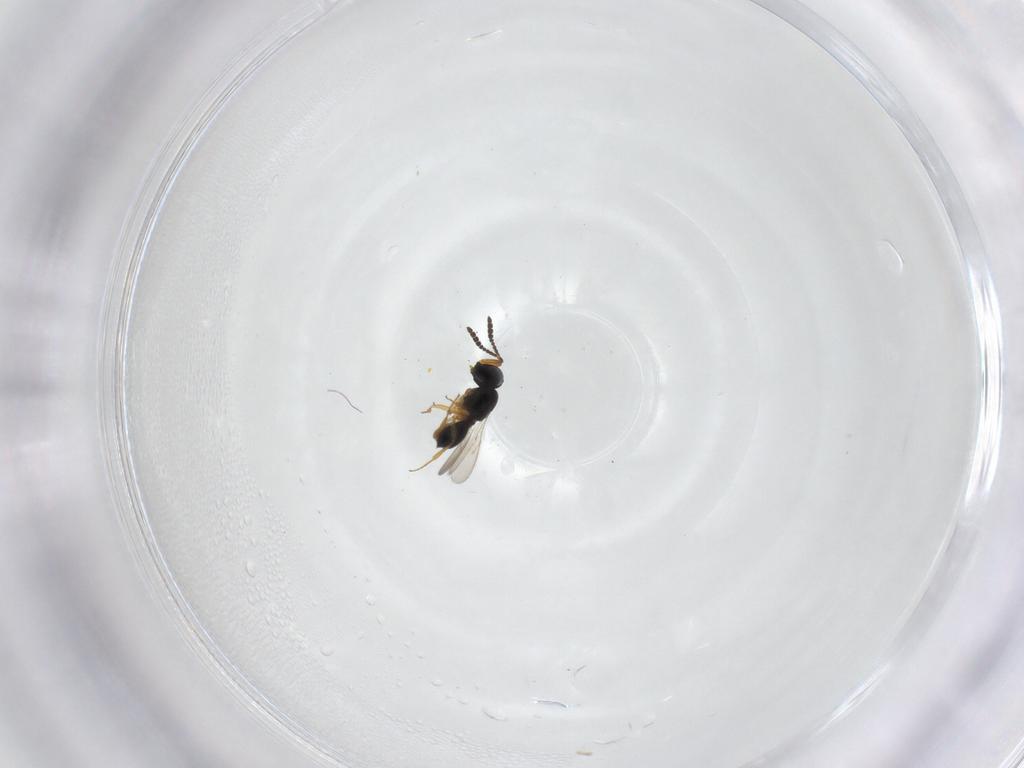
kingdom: Animalia
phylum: Arthropoda
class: Insecta
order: Hymenoptera
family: Scelionidae
